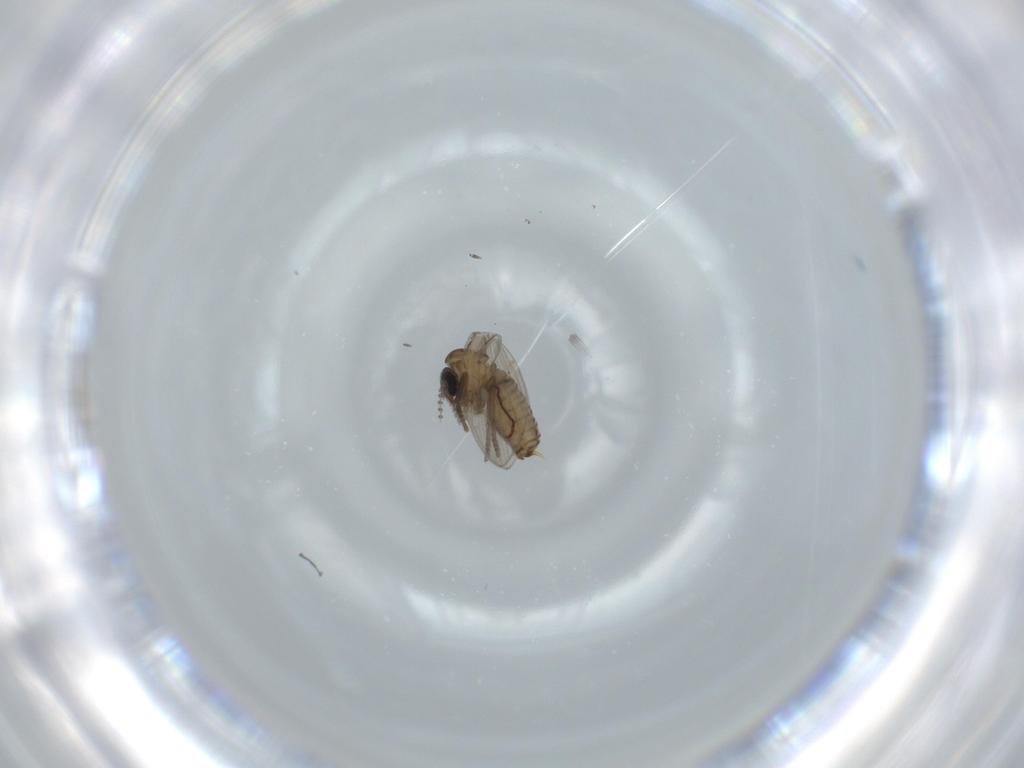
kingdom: Animalia
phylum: Arthropoda
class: Insecta
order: Diptera
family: Psychodidae
